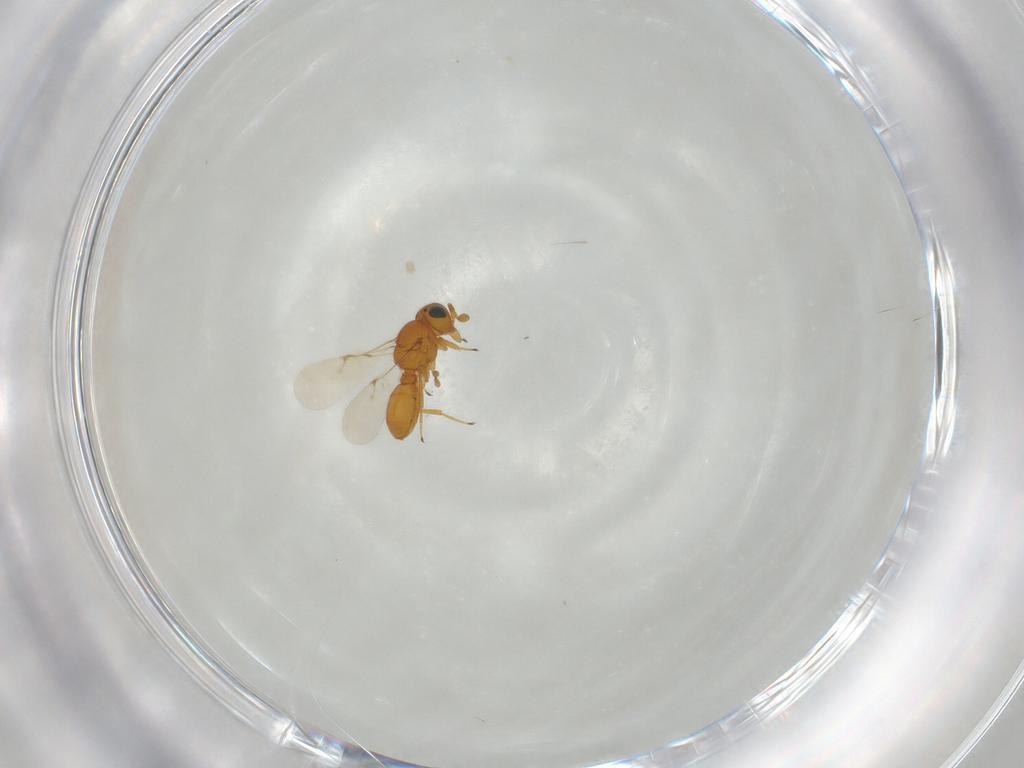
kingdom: Animalia
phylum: Arthropoda
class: Insecta
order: Hymenoptera
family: Scelionidae
